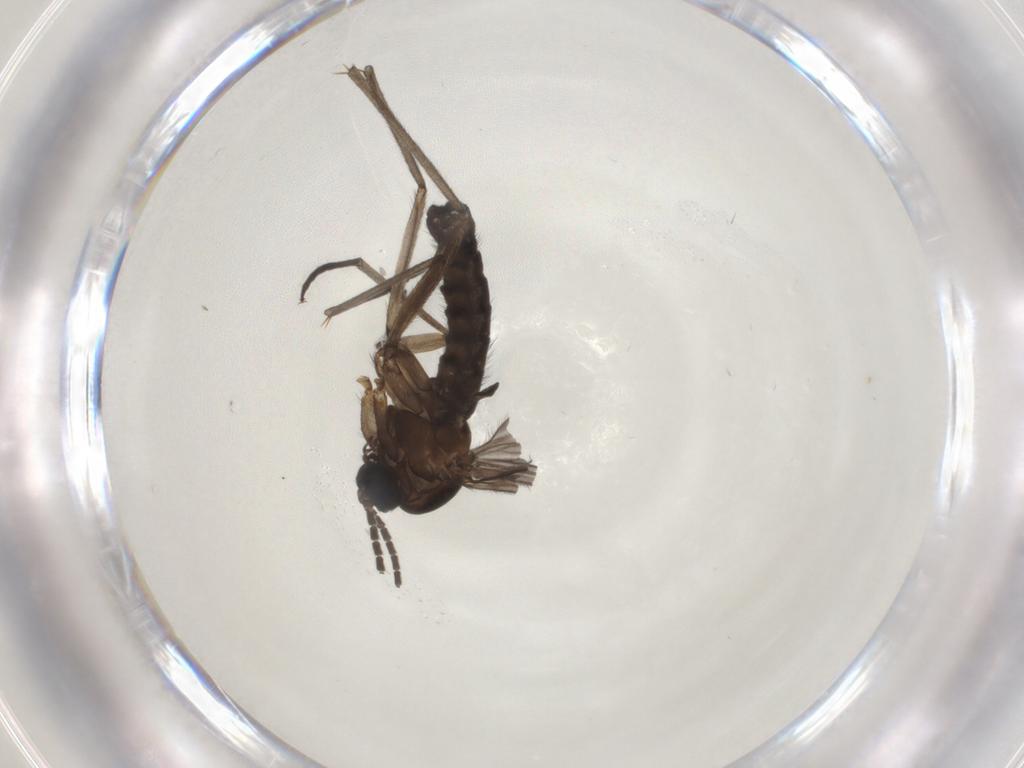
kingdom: Animalia
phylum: Arthropoda
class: Insecta
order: Diptera
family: Sciaridae
